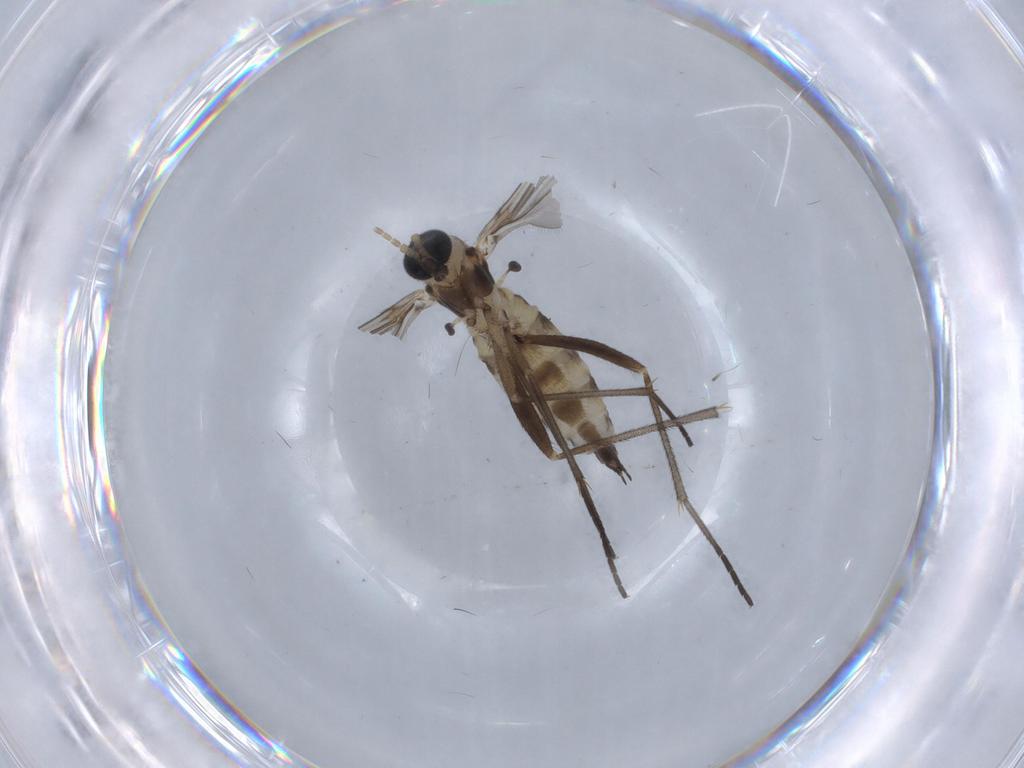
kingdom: Animalia
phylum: Arthropoda
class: Insecta
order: Diptera
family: Sciaridae
